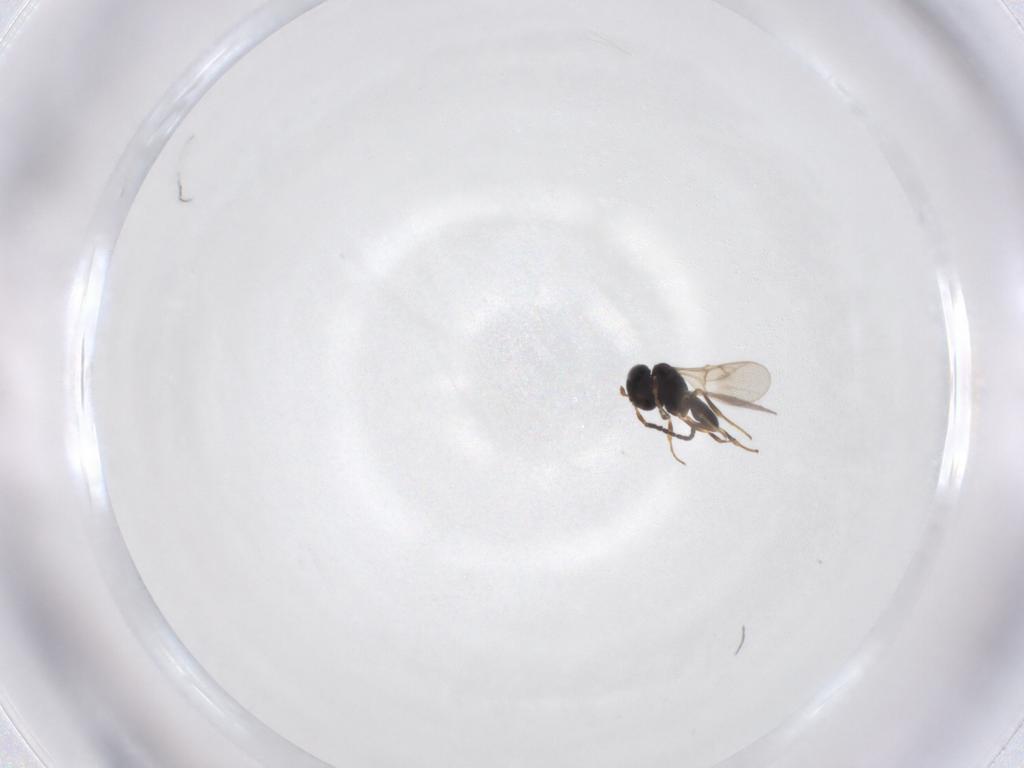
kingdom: Animalia
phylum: Arthropoda
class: Insecta
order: Hymenoptera
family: Scelionidae
